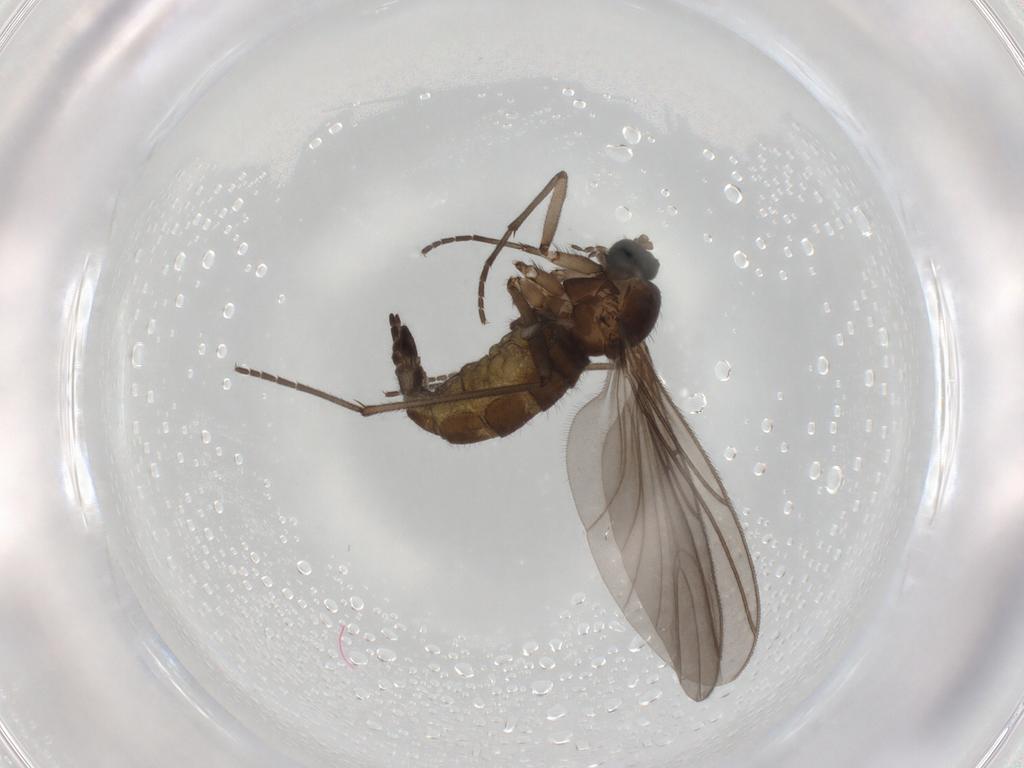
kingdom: Animalia
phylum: Arthropoda
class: Insecta
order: Diptera
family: Sciaridae
